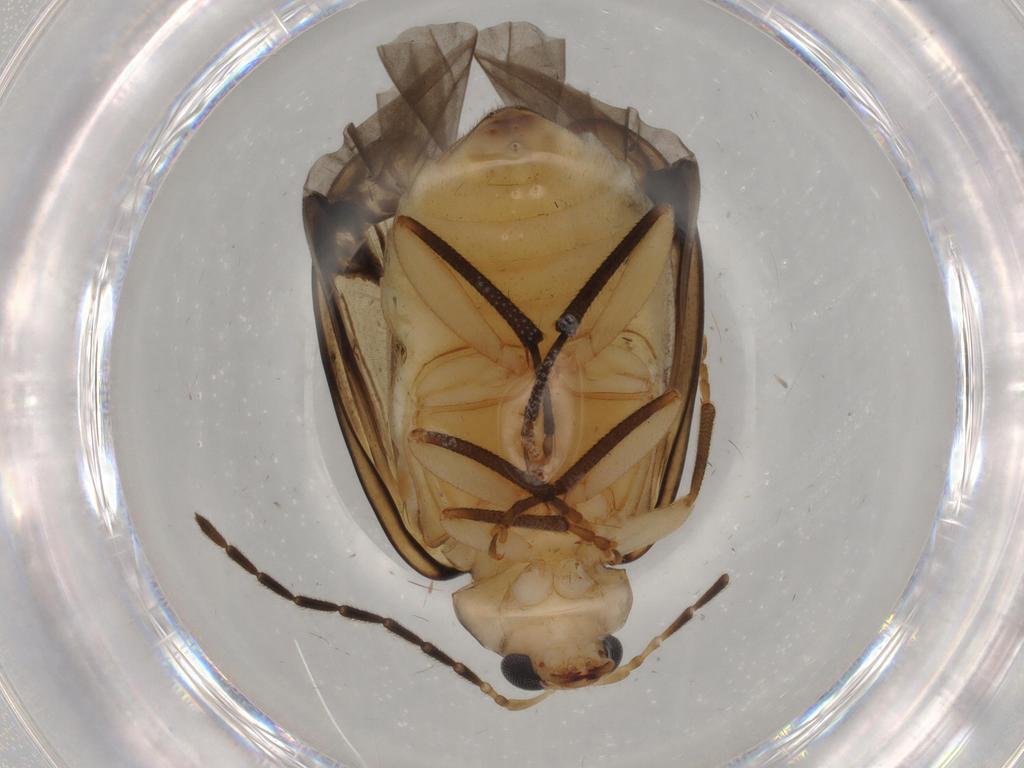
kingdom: Animalia
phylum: Arthropoda
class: Insecta
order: Coleoptera
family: Chrysomelidae
